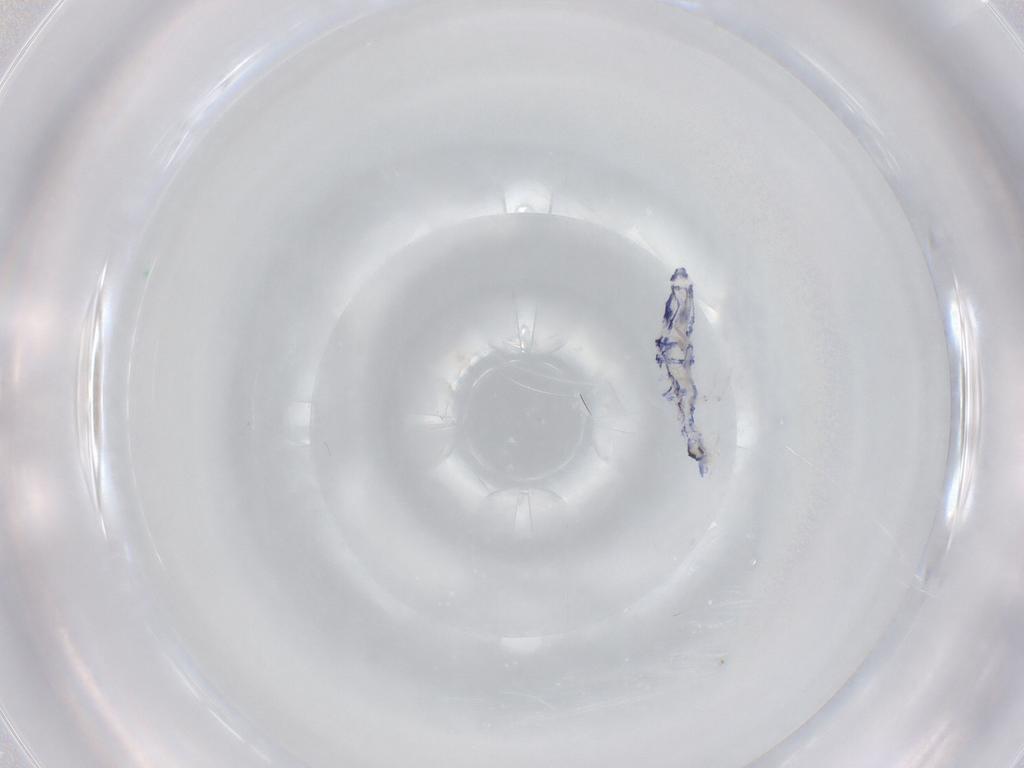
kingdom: Animalia
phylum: Arthropoda
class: Collembola
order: Entomobryomorpha
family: Entomobryidae
